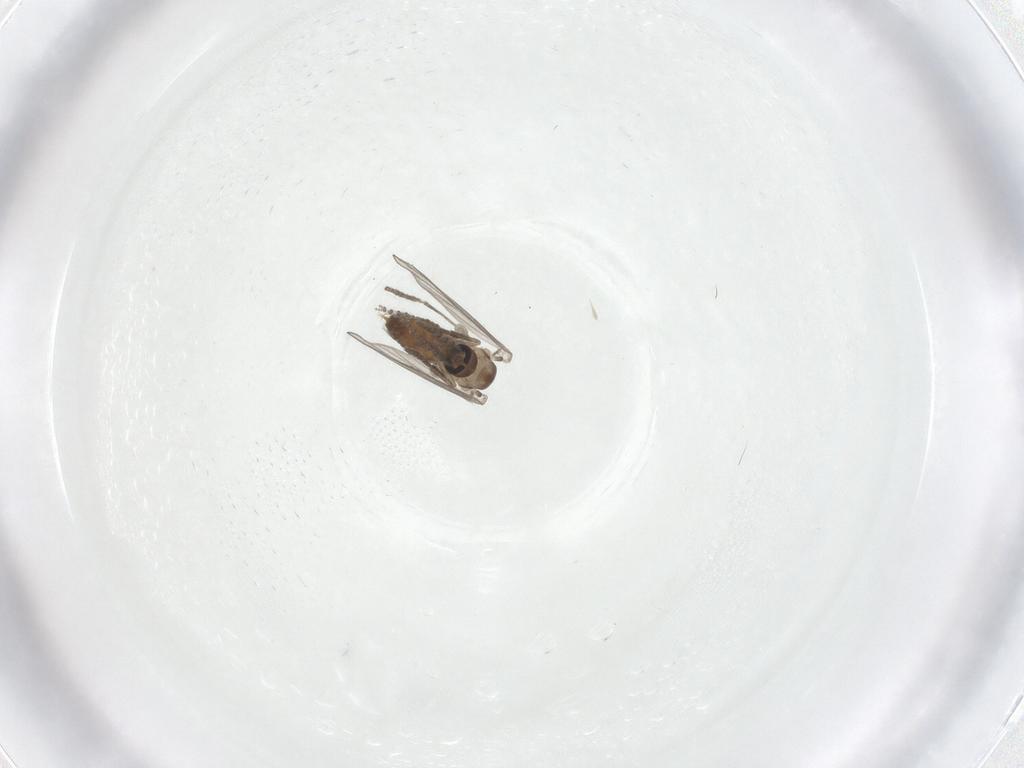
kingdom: Animalia
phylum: Arthropoda
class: Insecta
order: Diptera
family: Psychodidae
